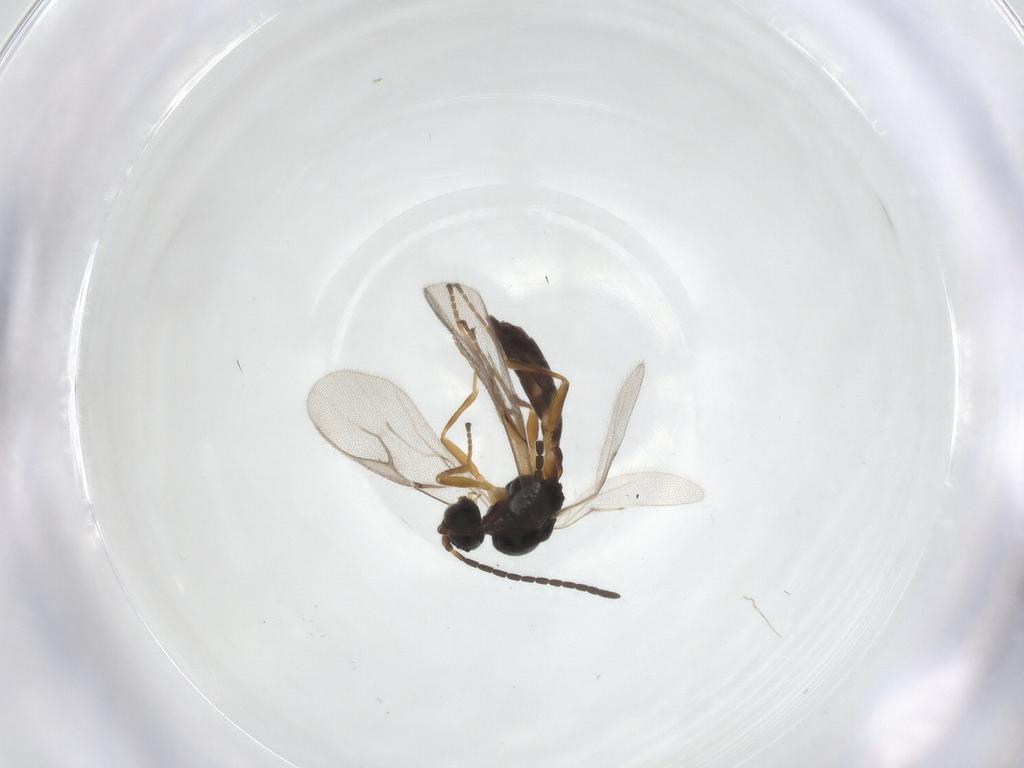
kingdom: Animalia
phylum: Arthropoda
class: Insecta
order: Hymenoptera
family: Braconidae
